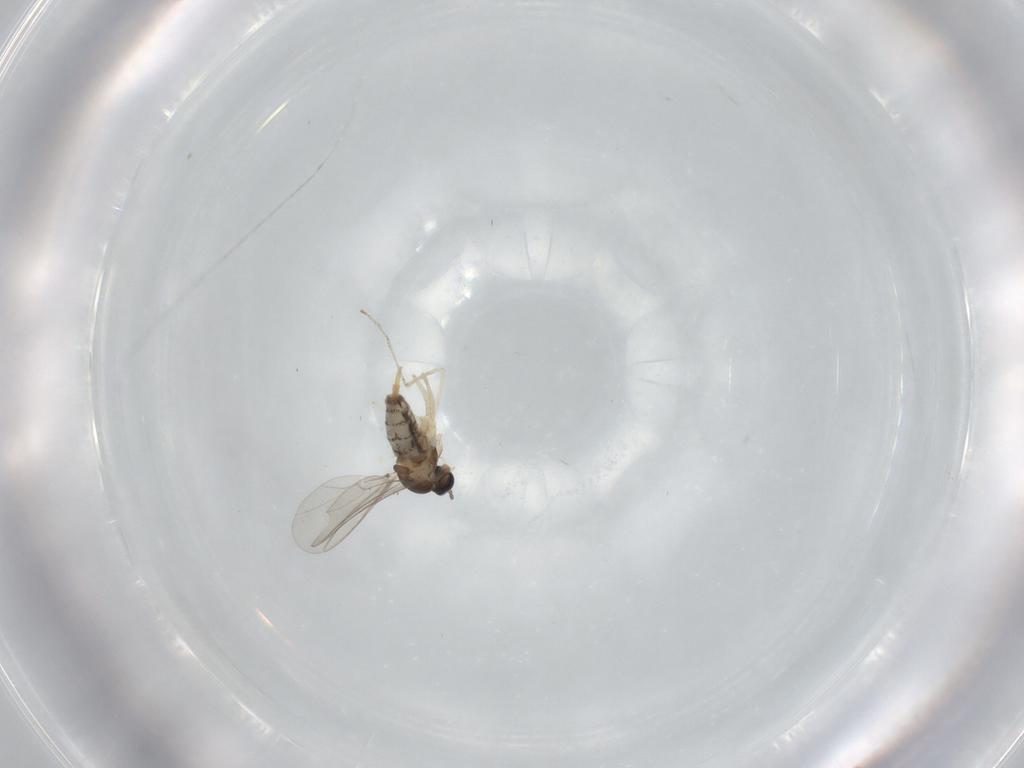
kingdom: Animalia
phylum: Arthropoda
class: Insecta
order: Diptera
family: Cecidomyiidae
